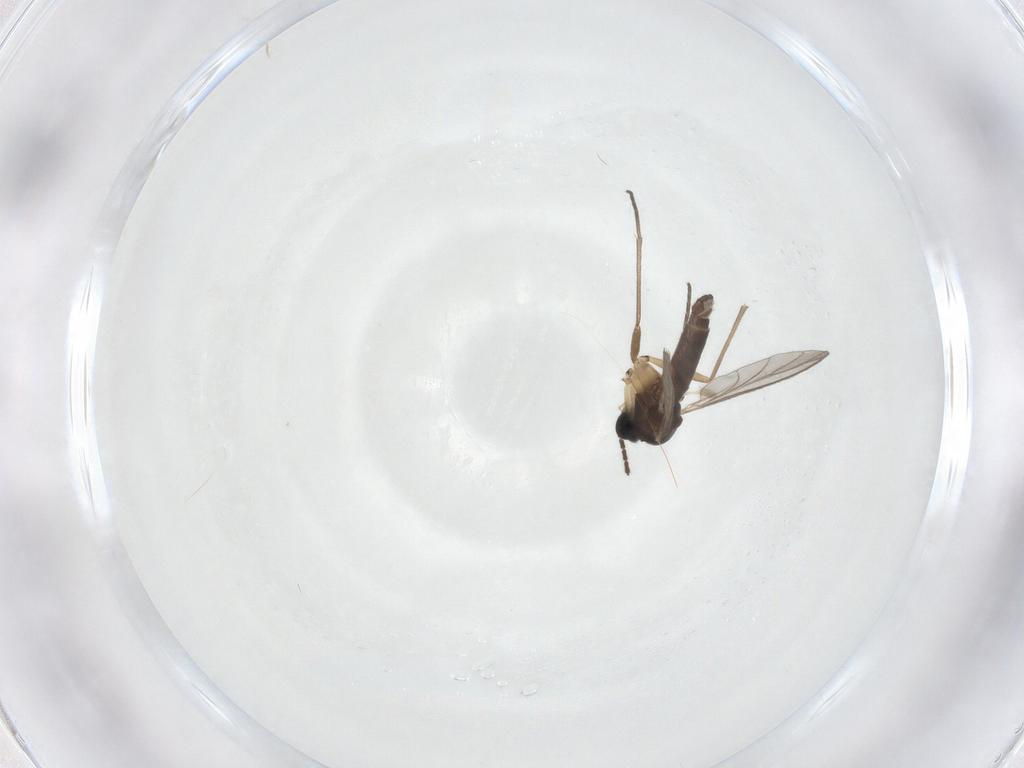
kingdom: Animalia
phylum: Arthropoda
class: Insecta
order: Diptera
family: Sciaridae
